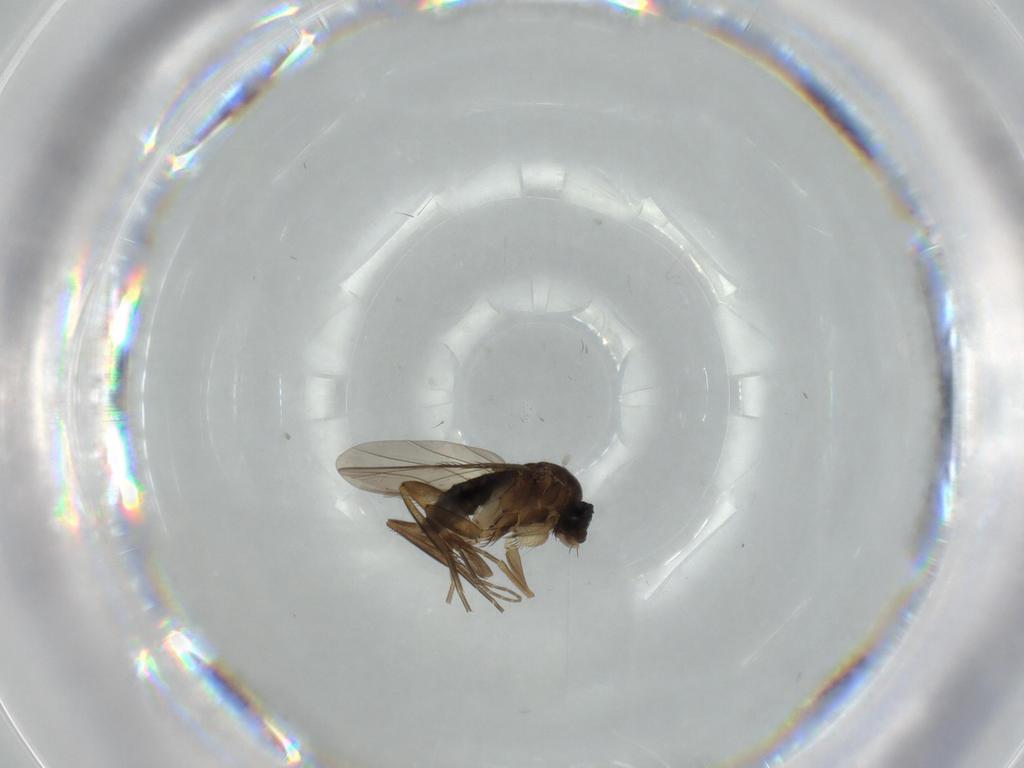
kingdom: Animalia
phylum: Arthropoda
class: Insecta
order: Diptera
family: Phoridae
